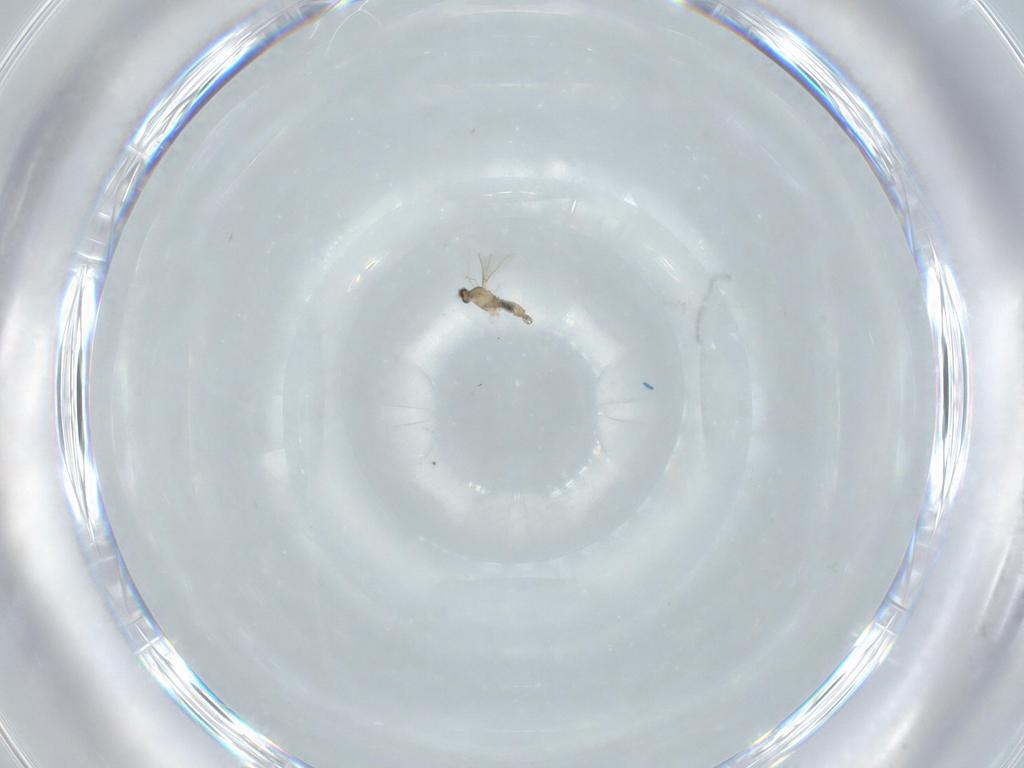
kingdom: Animalia
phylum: Arthropoda
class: Insecta
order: Diptera
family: Cecidomyiidae
